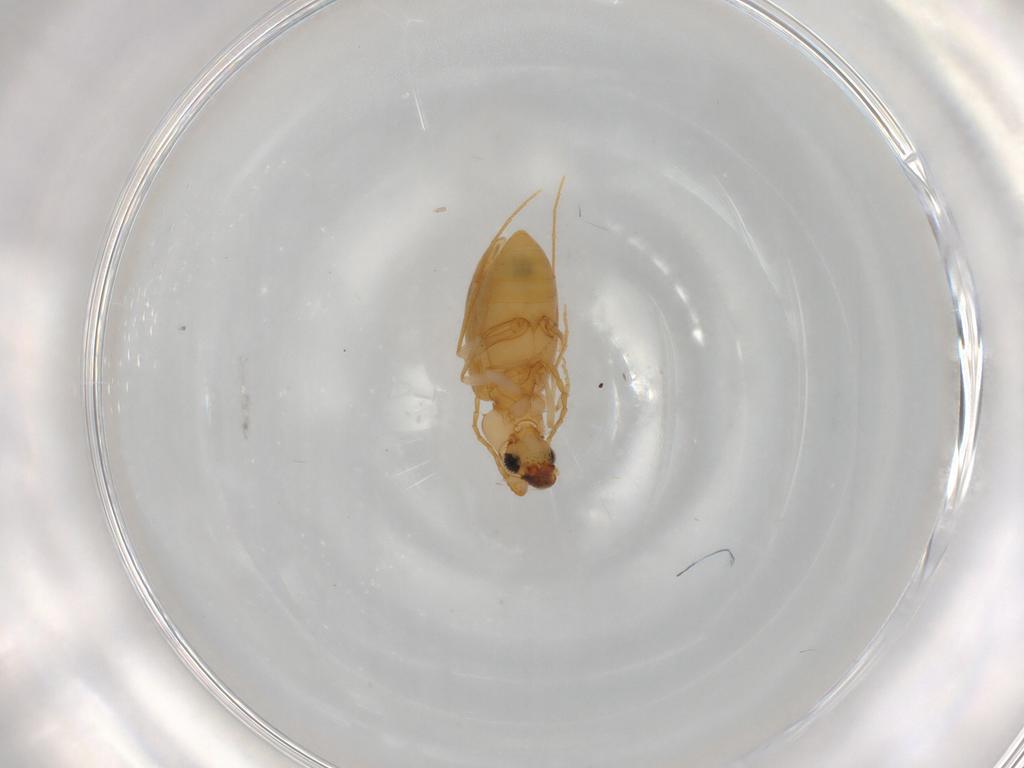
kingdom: Animalia
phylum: Arthropoda
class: Insecta
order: Coleoptera
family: Anthicidae
